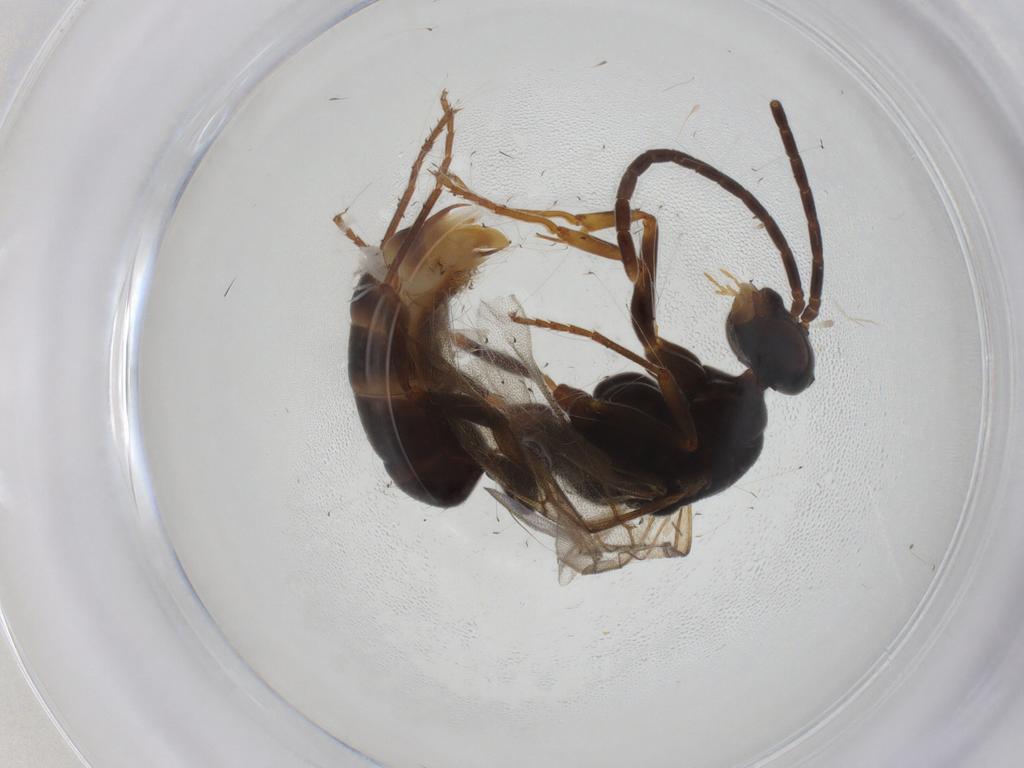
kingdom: Animalia
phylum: Arthropoda
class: Insecta
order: Hymenoptera
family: Formicidae
